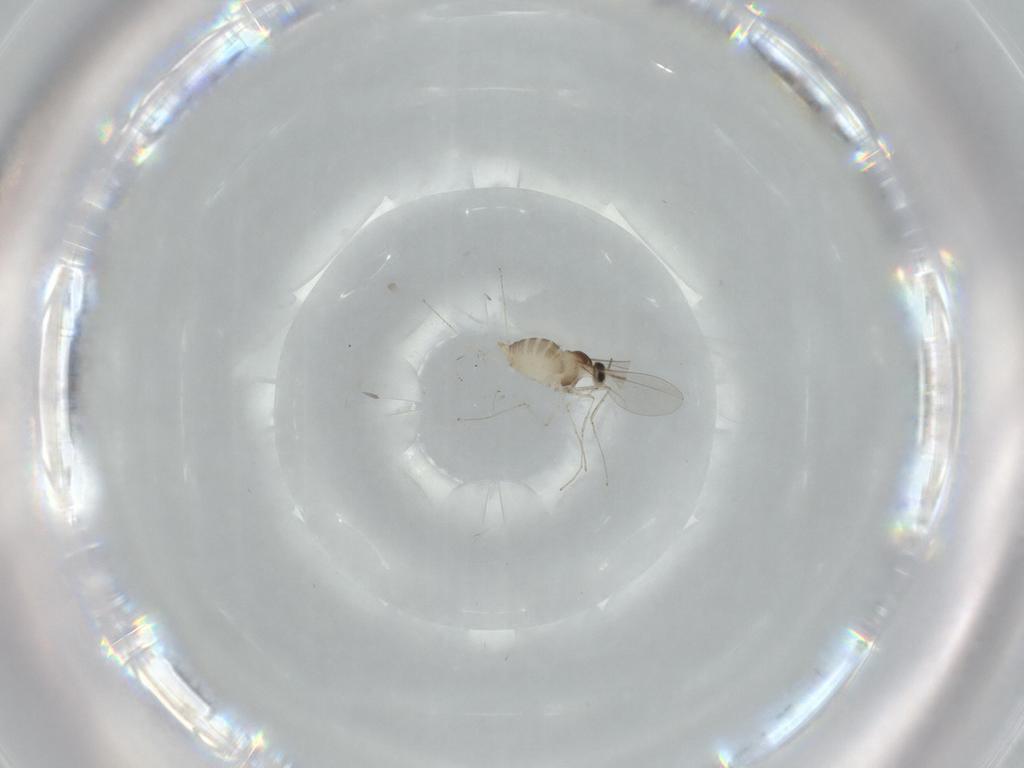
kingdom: Animalia
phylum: Arthropoda
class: Insecta
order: Diptera
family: Cecidomyiidae
